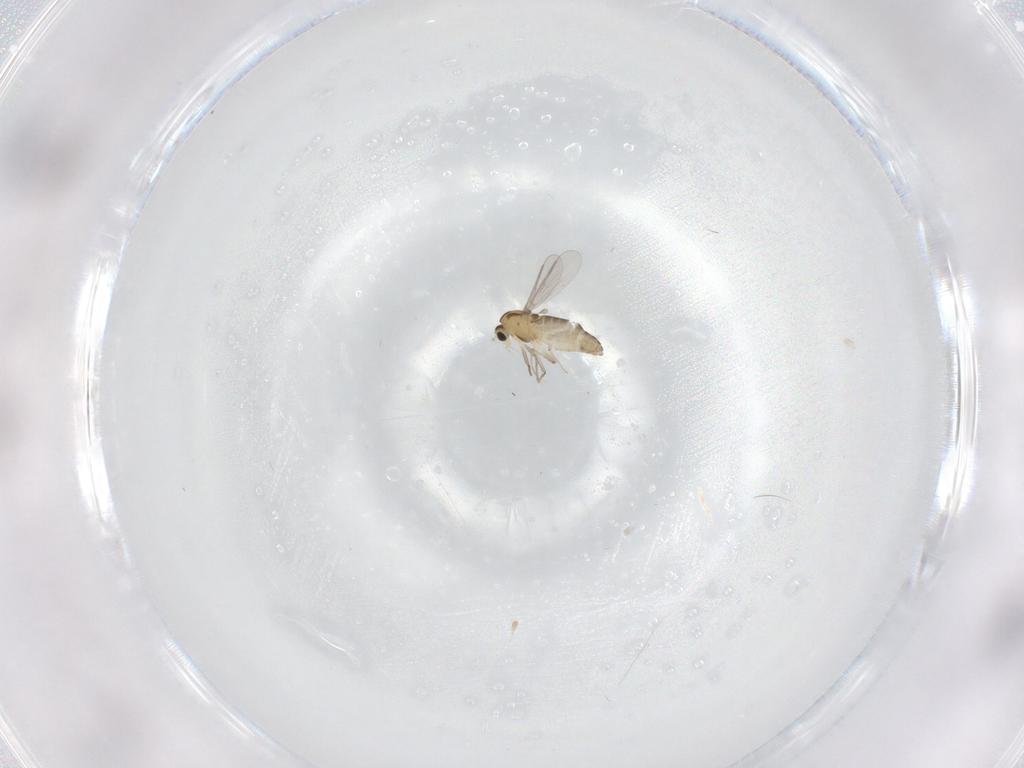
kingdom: Animalia
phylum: Arthropoda
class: Insecta
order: Diptera
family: Chironomidae
